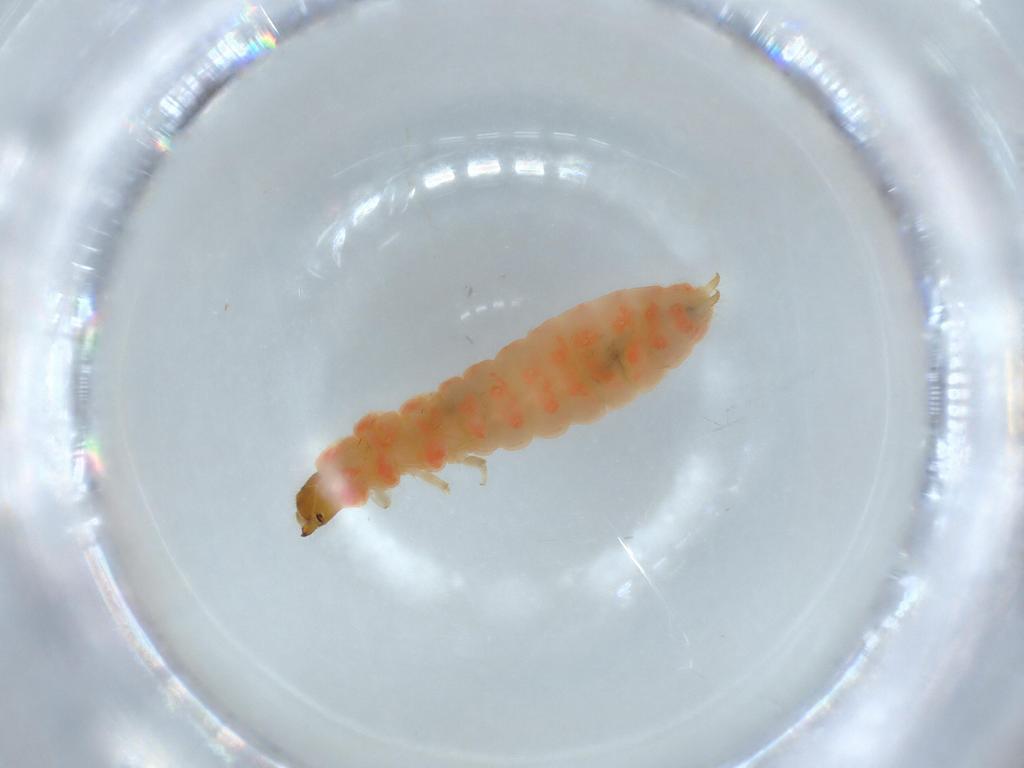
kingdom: Animalia
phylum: Arthropoda
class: Insecta
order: Coleoptera
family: Melyridae
